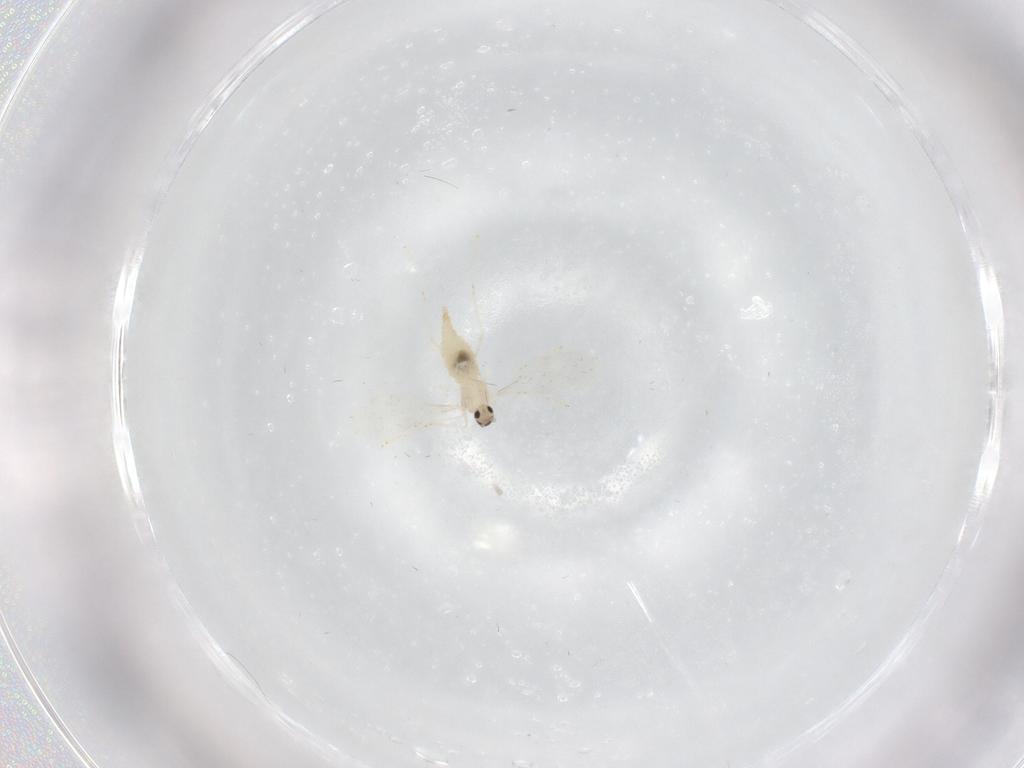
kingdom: Animalia
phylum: Arthropoda
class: Insecta
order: Diptera
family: Cecidomyiidae
